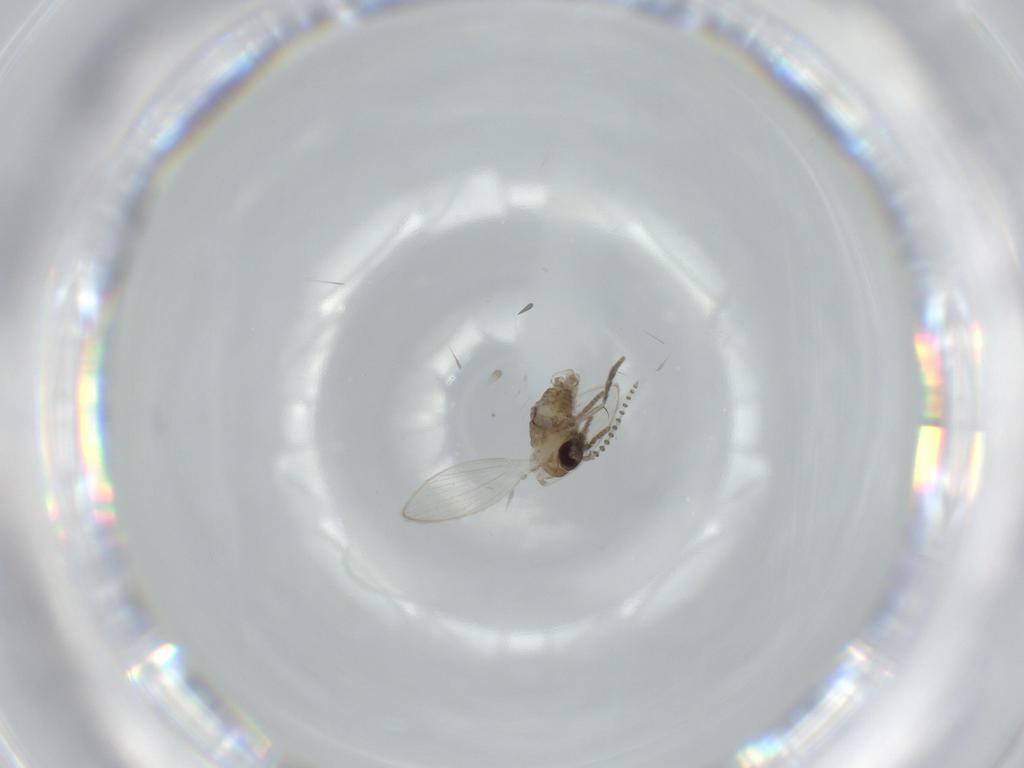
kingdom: Animalia
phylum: Arthropoda
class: Insecta
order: Diptera
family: Psychodidae
